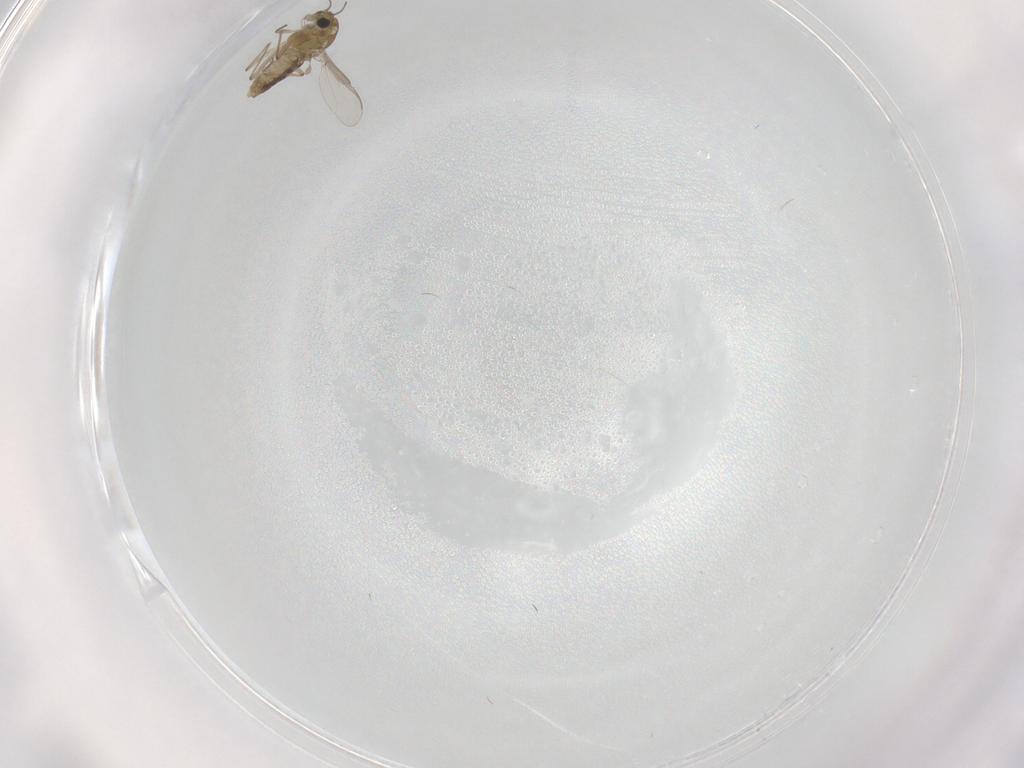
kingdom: Animalia
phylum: Arthropoda
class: Insecta
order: Diptera
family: Chironomidae
